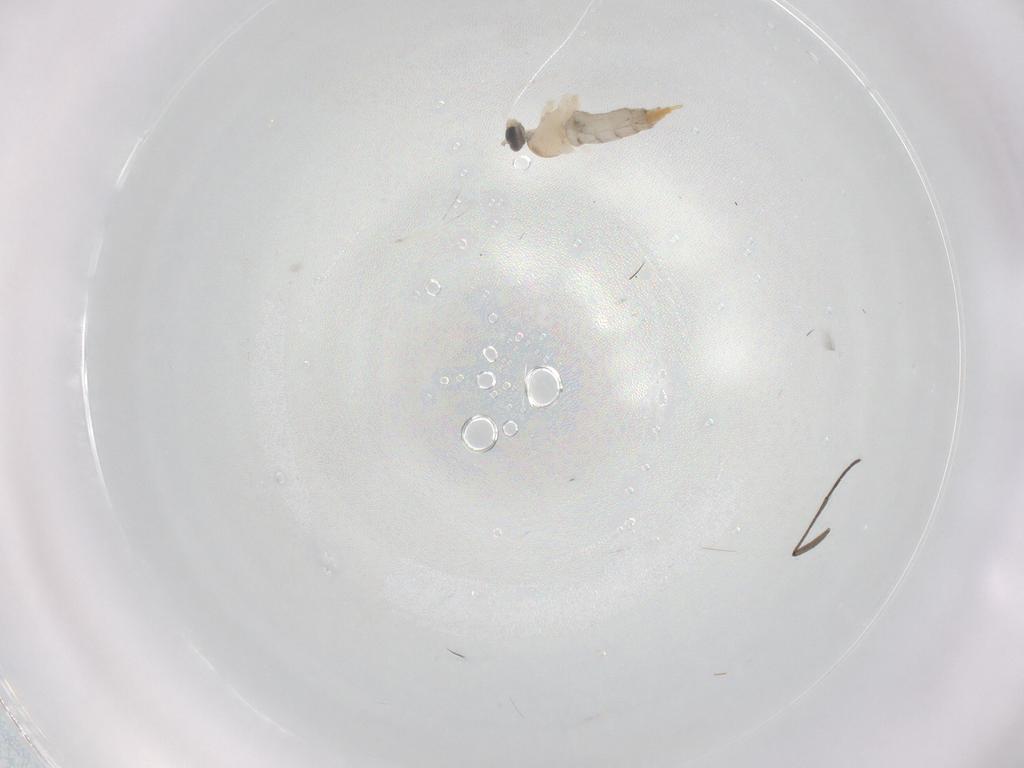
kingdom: Animalia
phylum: Arthropoda
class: Insecta
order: Diptera
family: Cecidomyiidae
